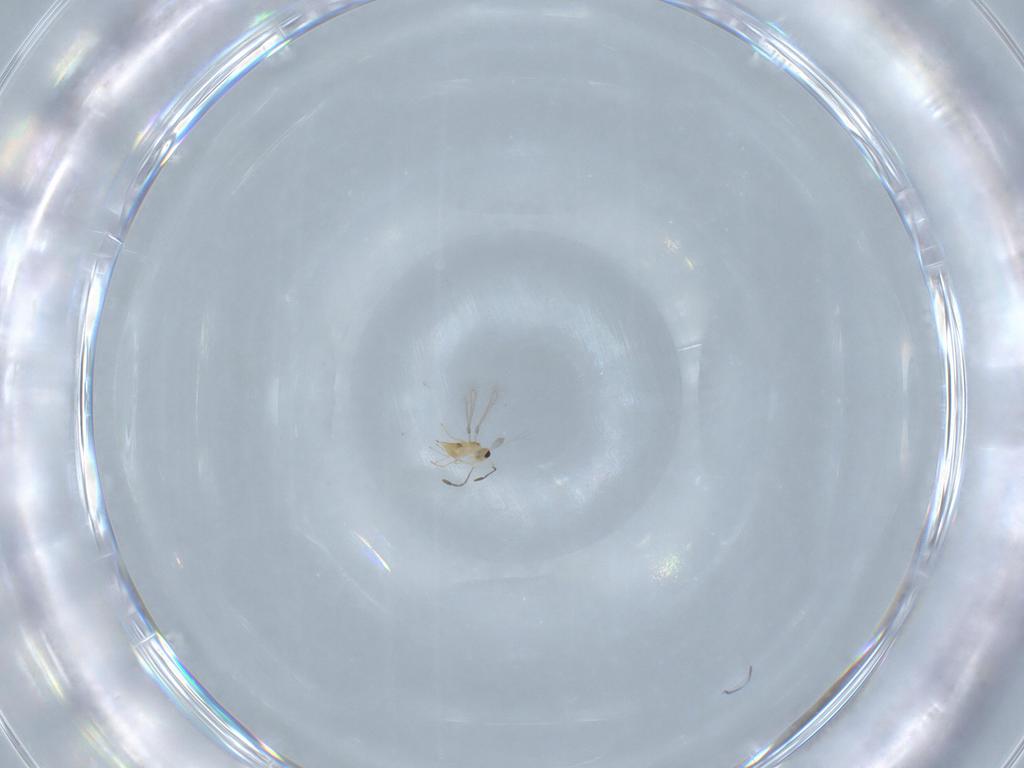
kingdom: Animalia
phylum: Arthropoda
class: Insecta
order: Hymenoptera
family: Mymaridae
